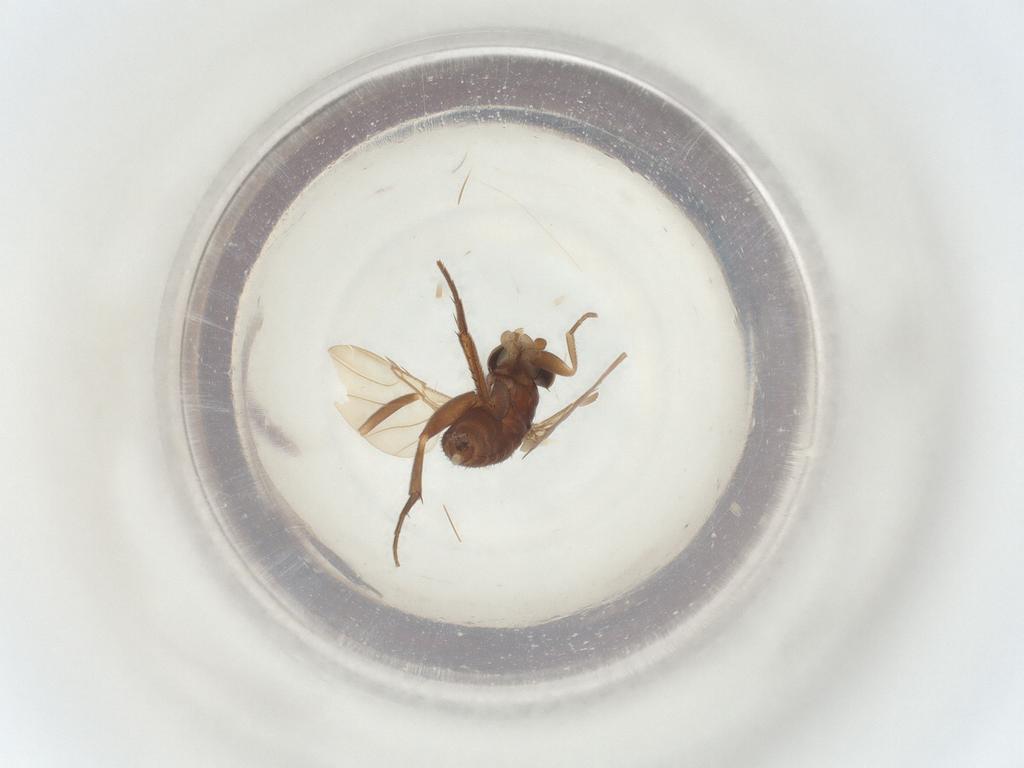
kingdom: Animalia
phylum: Arthropoda
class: Insecta
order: Diptera
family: Phoridae
